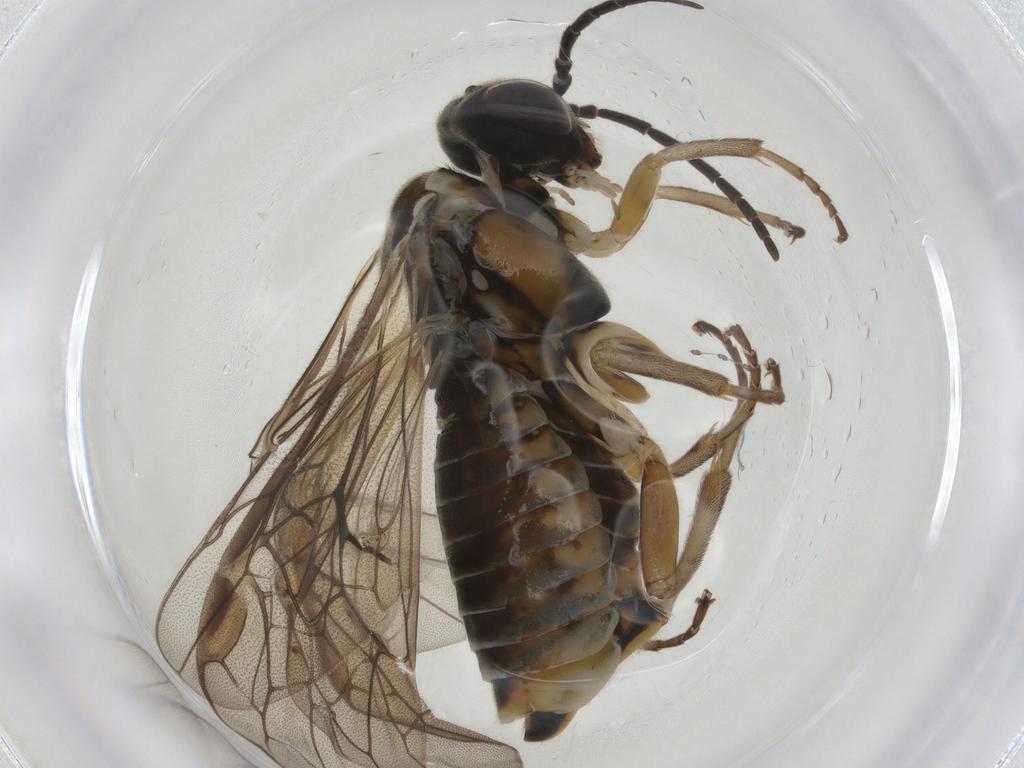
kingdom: Animalia
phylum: Arthropoda
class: Insecta
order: Hymenoptera
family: Tenthredinidae
